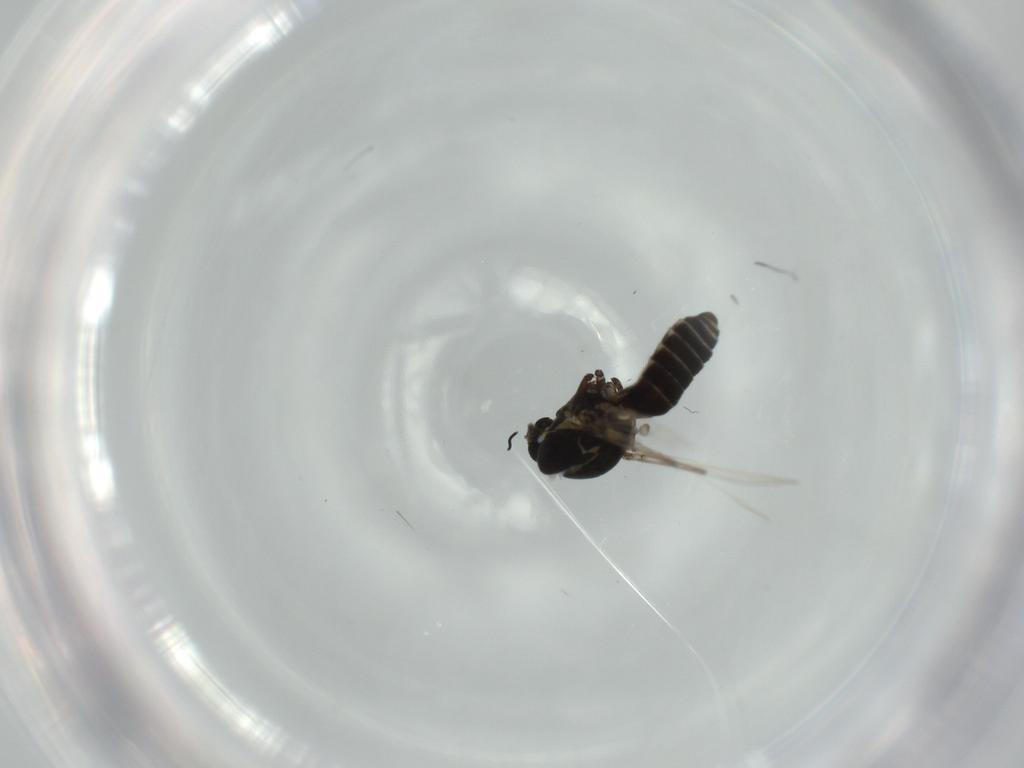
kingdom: Animalia
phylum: Arthropoda
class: Insecta
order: Diptera
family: Ceratopogonidae
